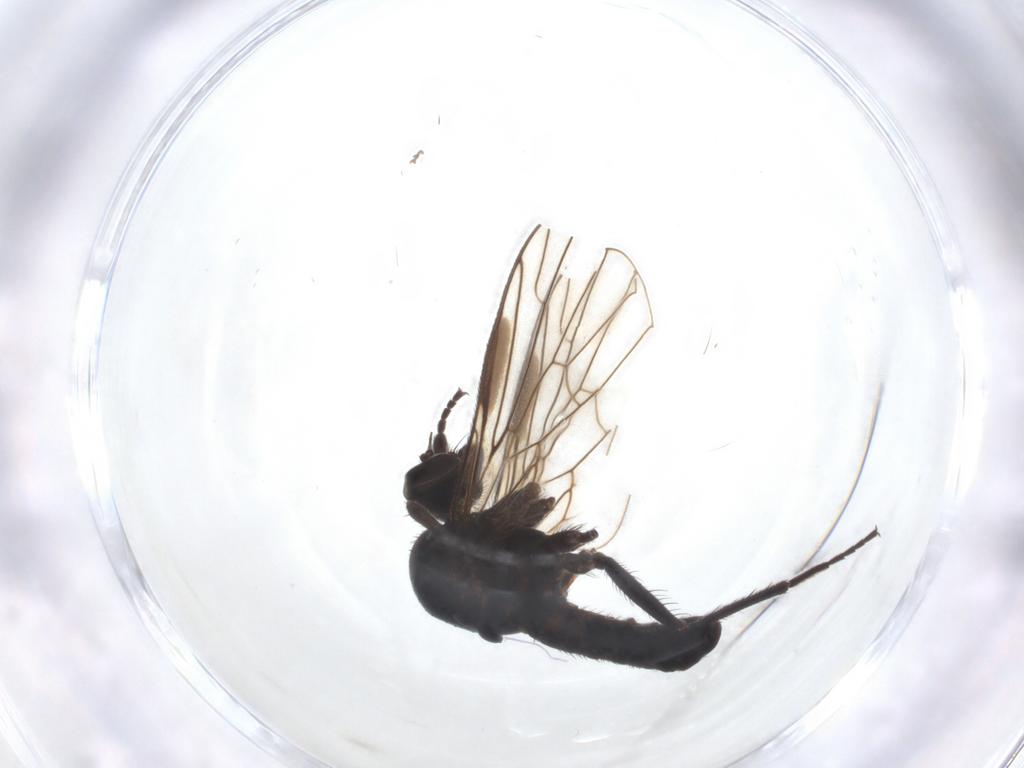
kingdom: Animalia
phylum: Arthropoda
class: Insecta
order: Diptera
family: Empididae
